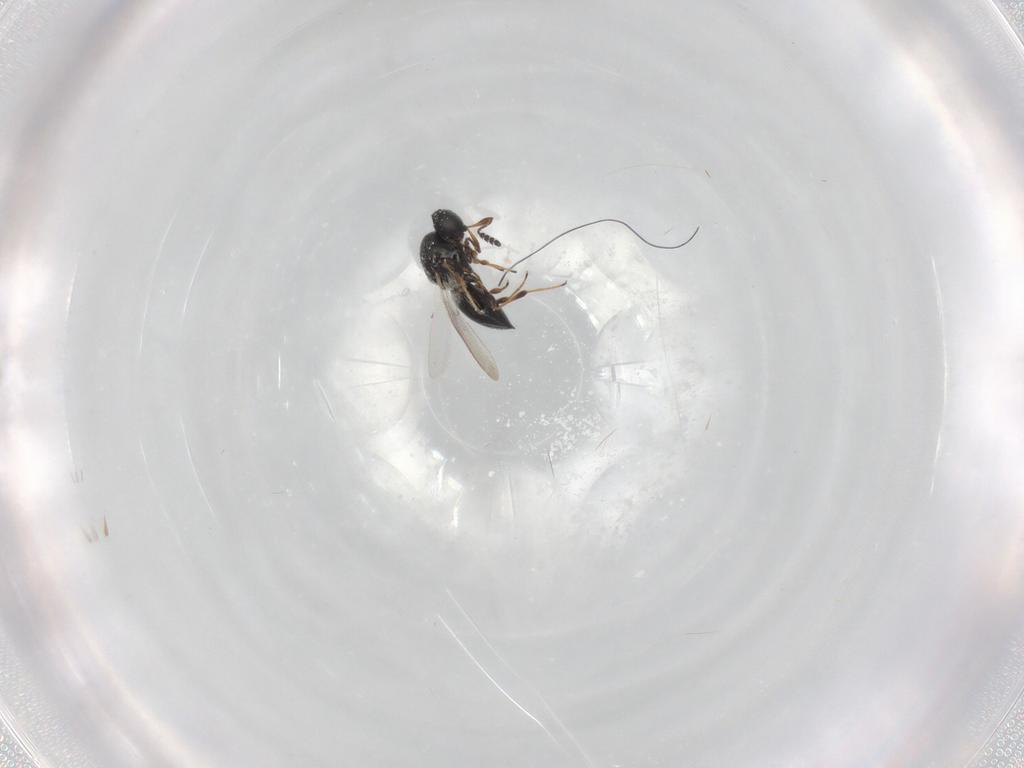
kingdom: Animalia
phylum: Arthropoda
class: Insecta
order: Hymenoptera
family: Platygastridae
